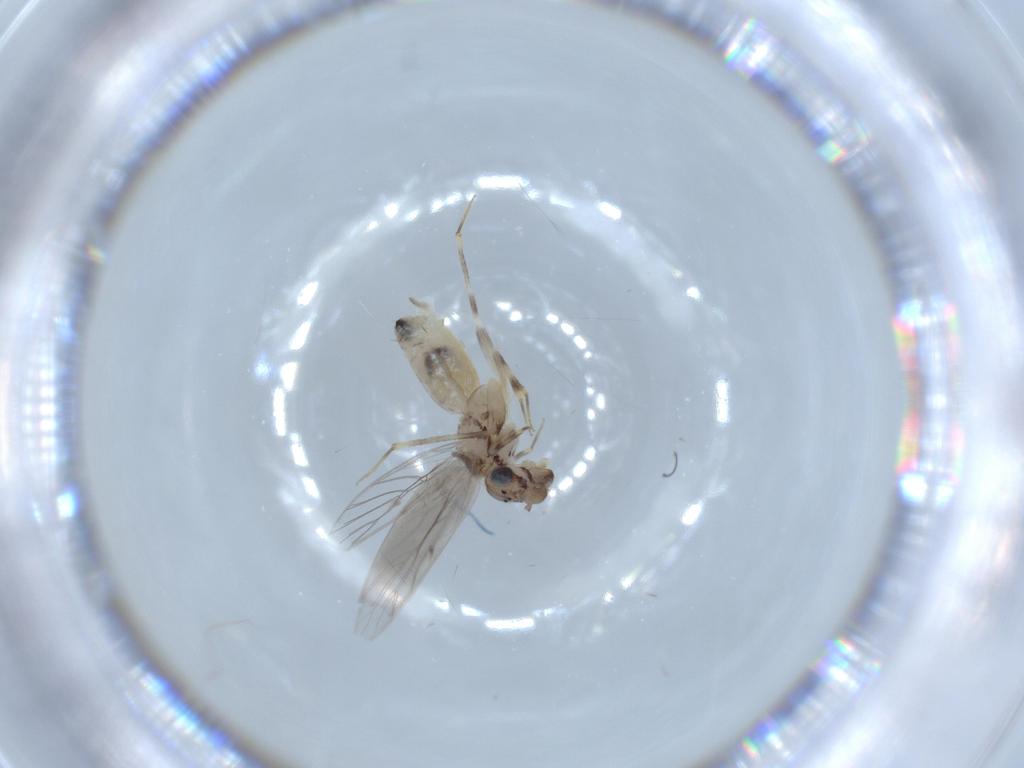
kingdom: Animalia
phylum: Arthropoda
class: Insecta
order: Psocodea
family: Lepidopsocidae
